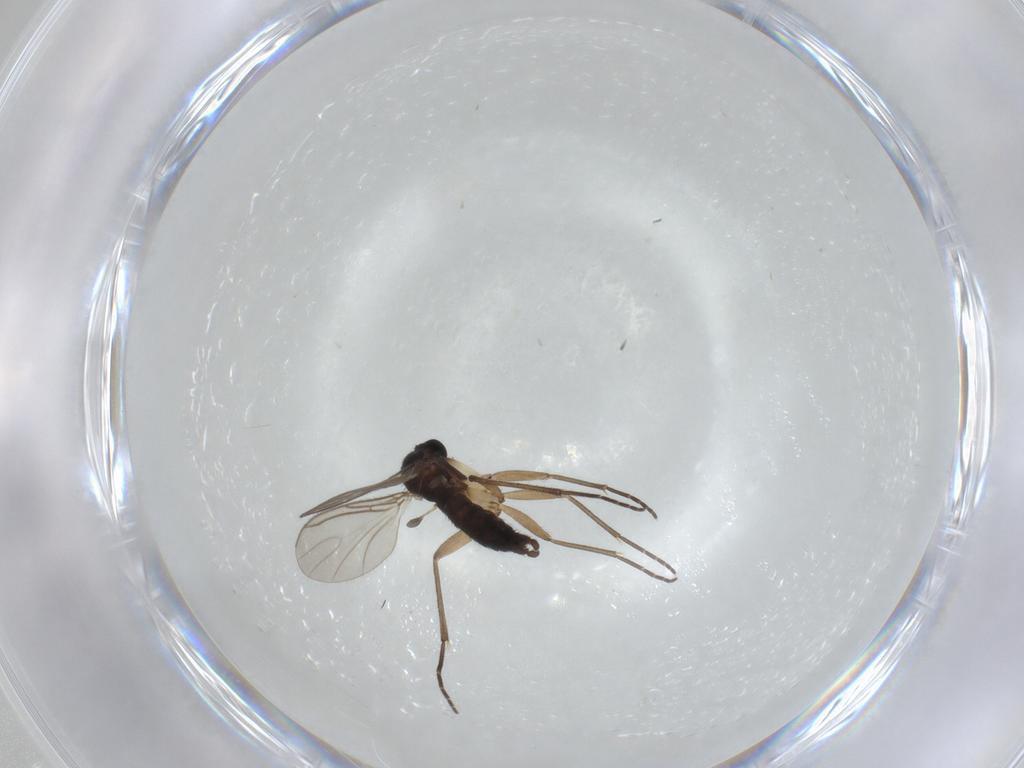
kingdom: Animalia
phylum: Arthropoda
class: Insecta
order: Diptera
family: Sciaridae
